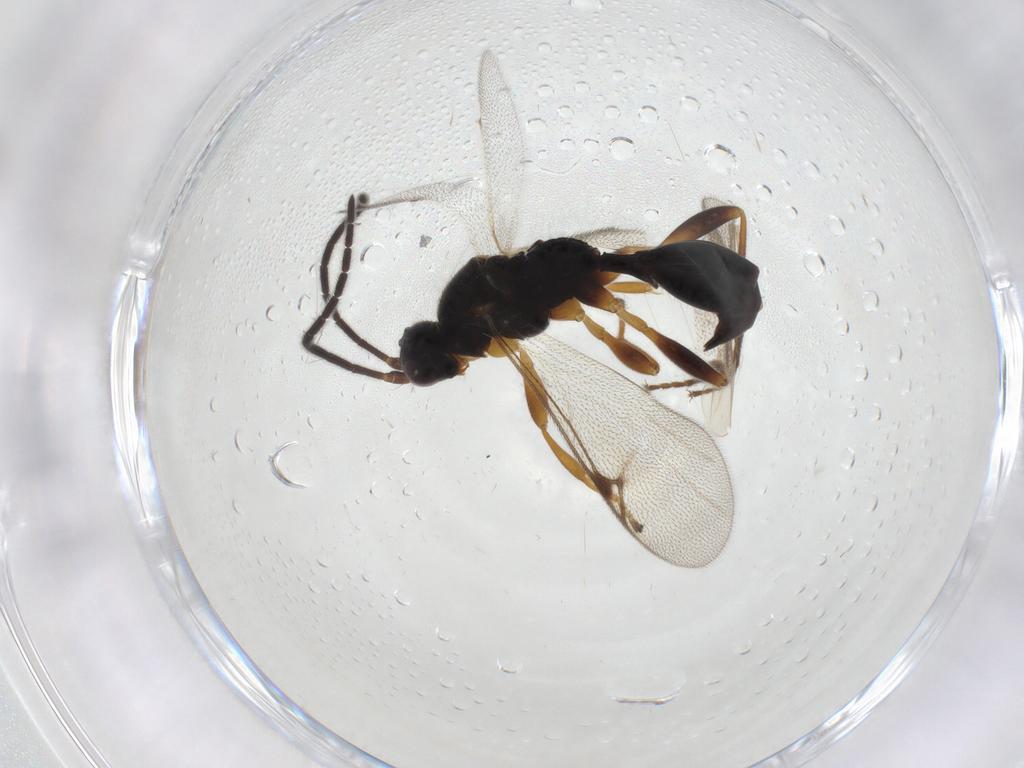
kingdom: Animalia
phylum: Arthropoda
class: Insecta
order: Hymenoptera
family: Proctotrupidae
